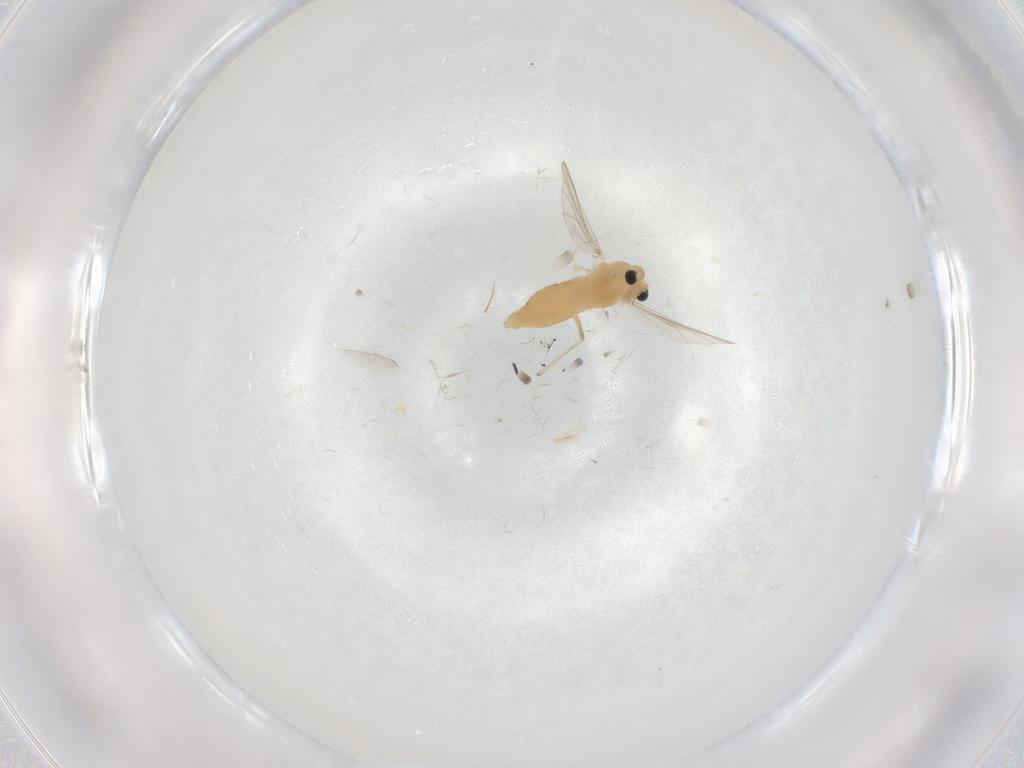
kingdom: Animalia
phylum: Arthropoda
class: Insecta
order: Diptera
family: Chironomidae
